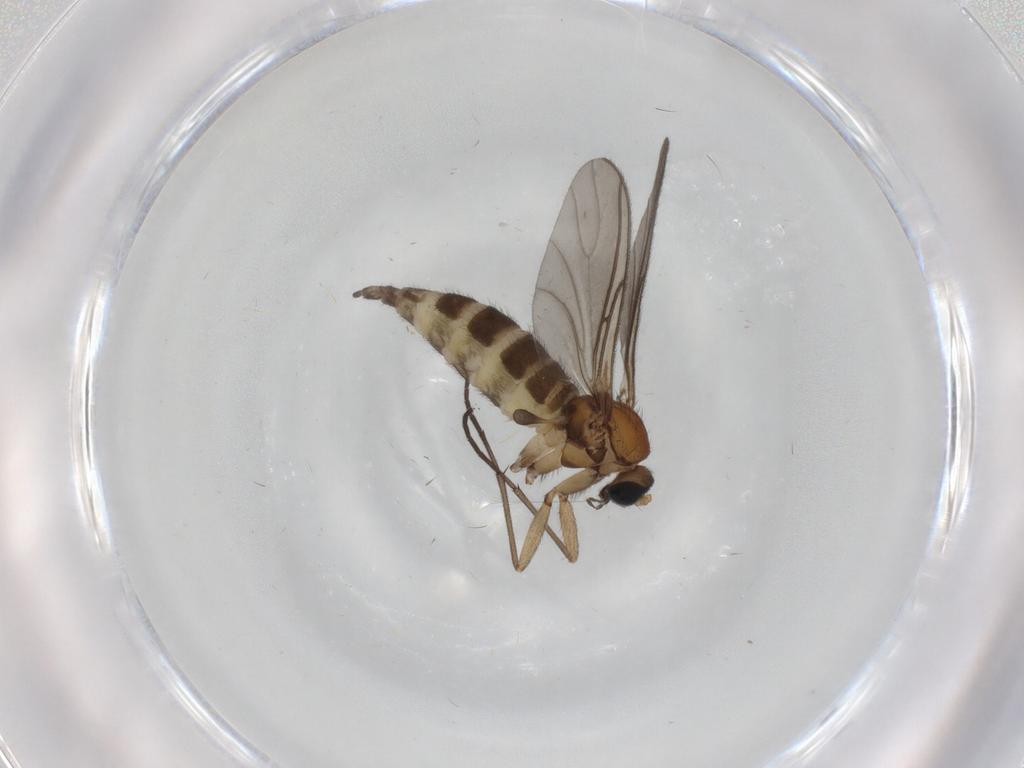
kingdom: Animalia
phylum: Arthropoda
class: Insecta
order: Diptera
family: Sciaridae
